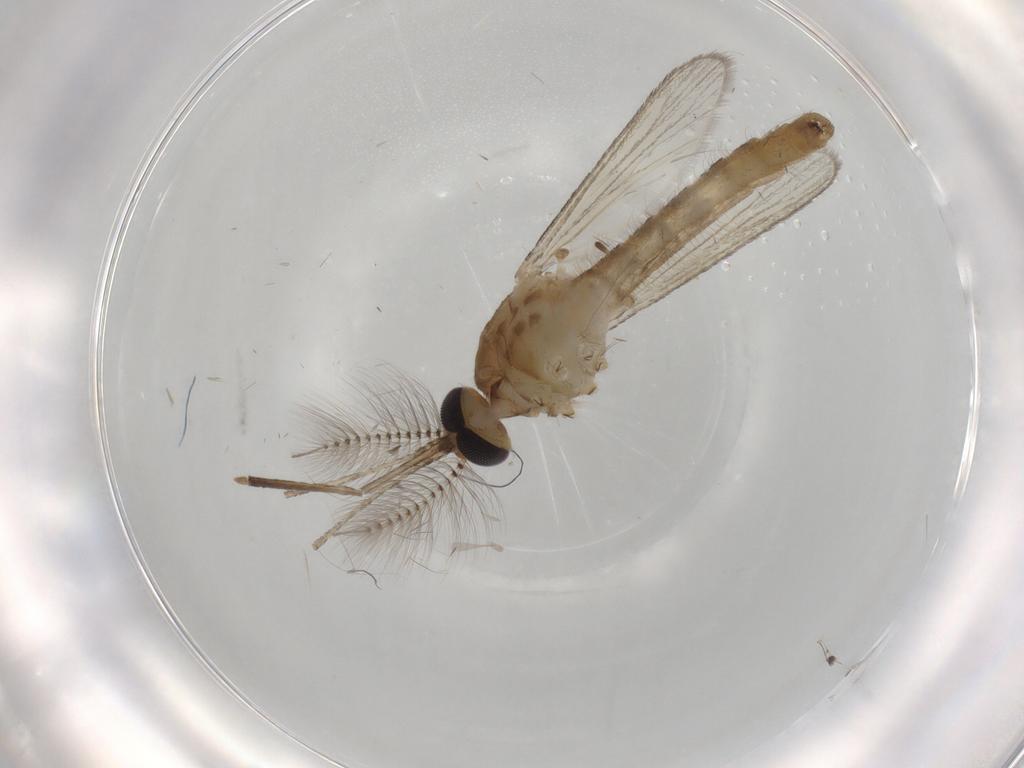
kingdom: Animalia
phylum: Arthropoda
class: Insecta
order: Diptera
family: Culicidae
